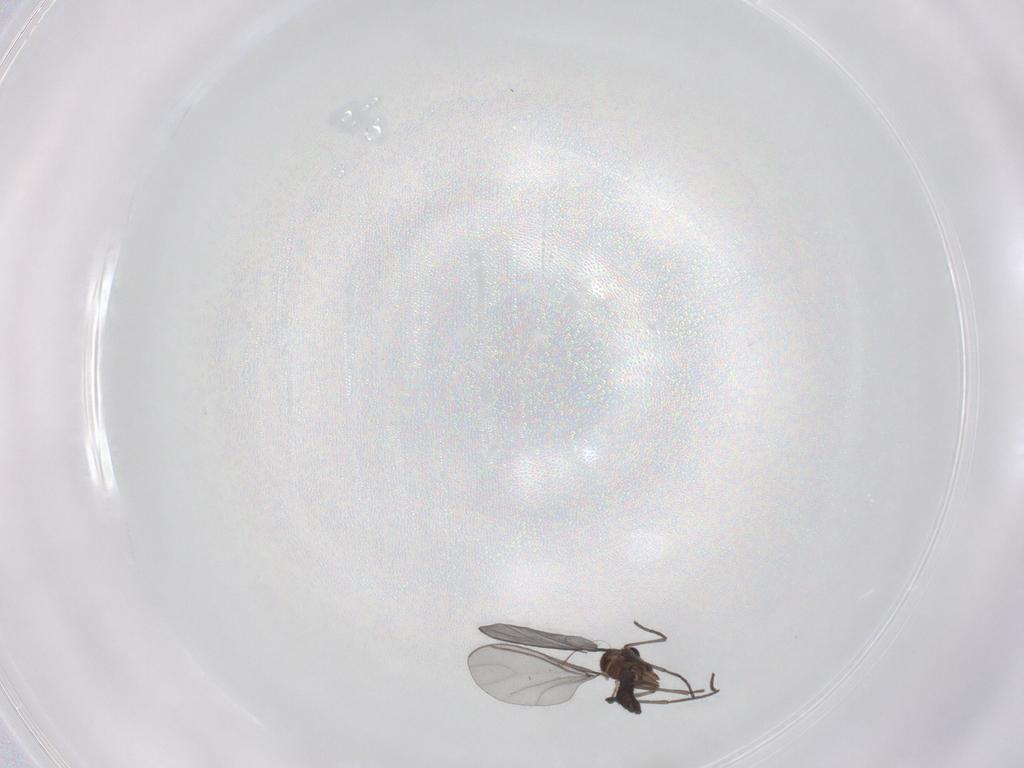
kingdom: Animalia
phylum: Arthropoda
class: Insecta
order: Diptera
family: Sciaridae
